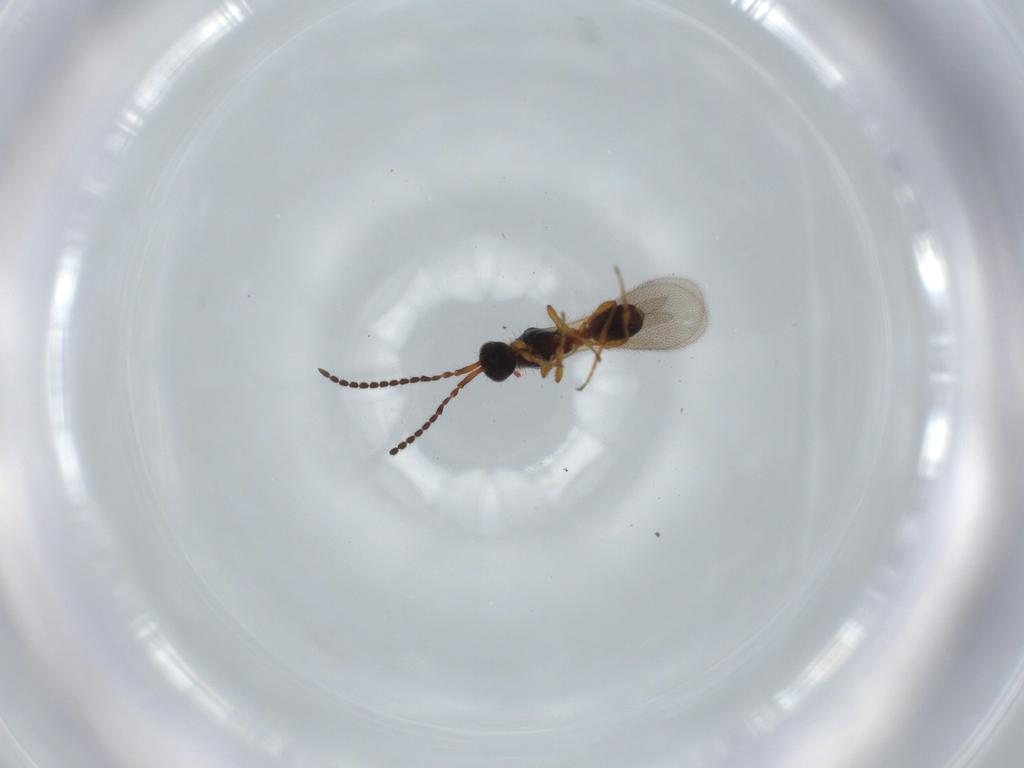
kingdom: Animalia
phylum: Arthropoda
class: Insecta
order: Hymenoptera
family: Diapriidae
